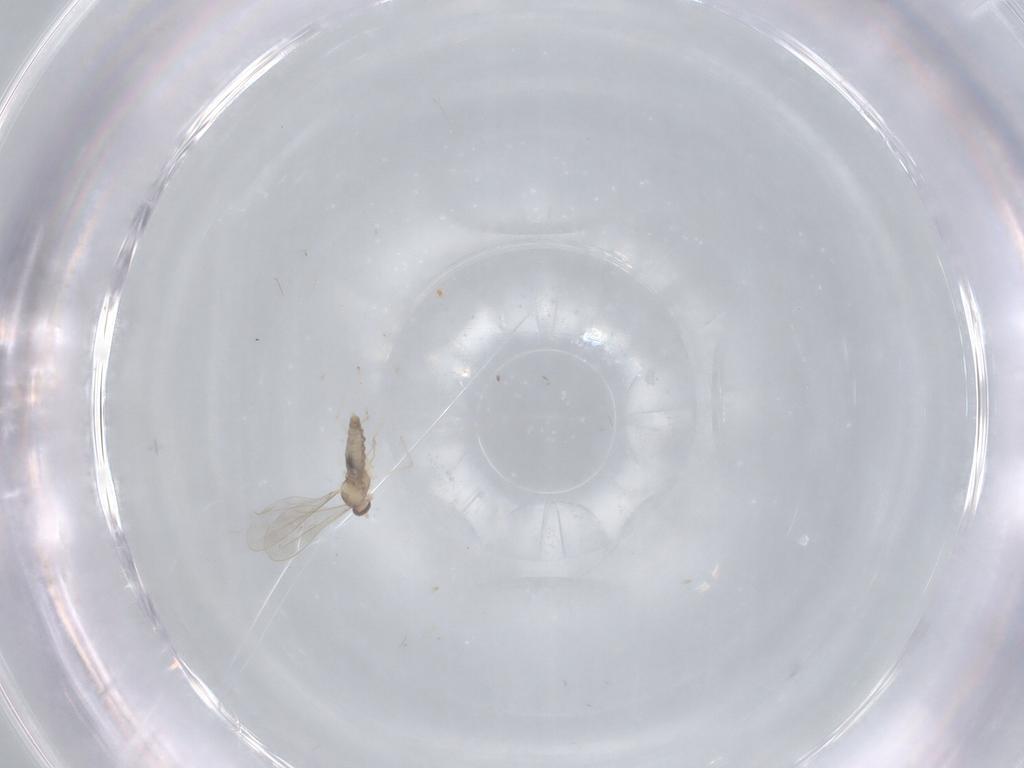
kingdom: Animalia
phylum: Arthropoda
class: Insecta
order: Diptera
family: Cecidomyiidae
